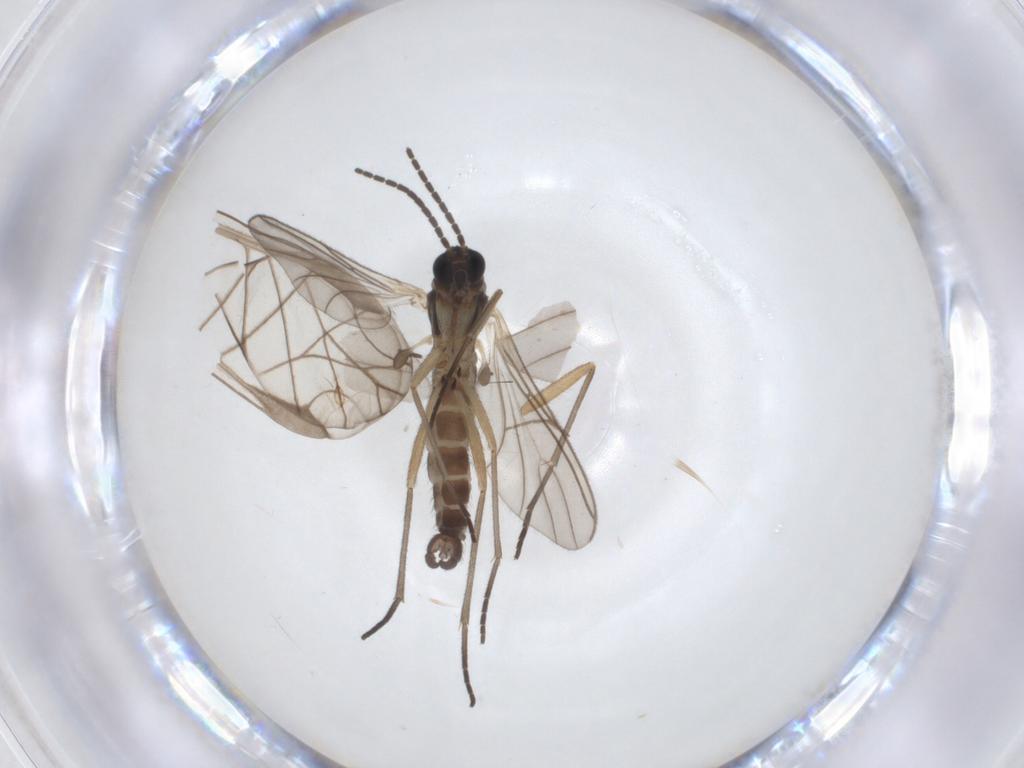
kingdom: Animalia
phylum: Arthropoda
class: Insecta
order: Diptera
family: Sciaridae
